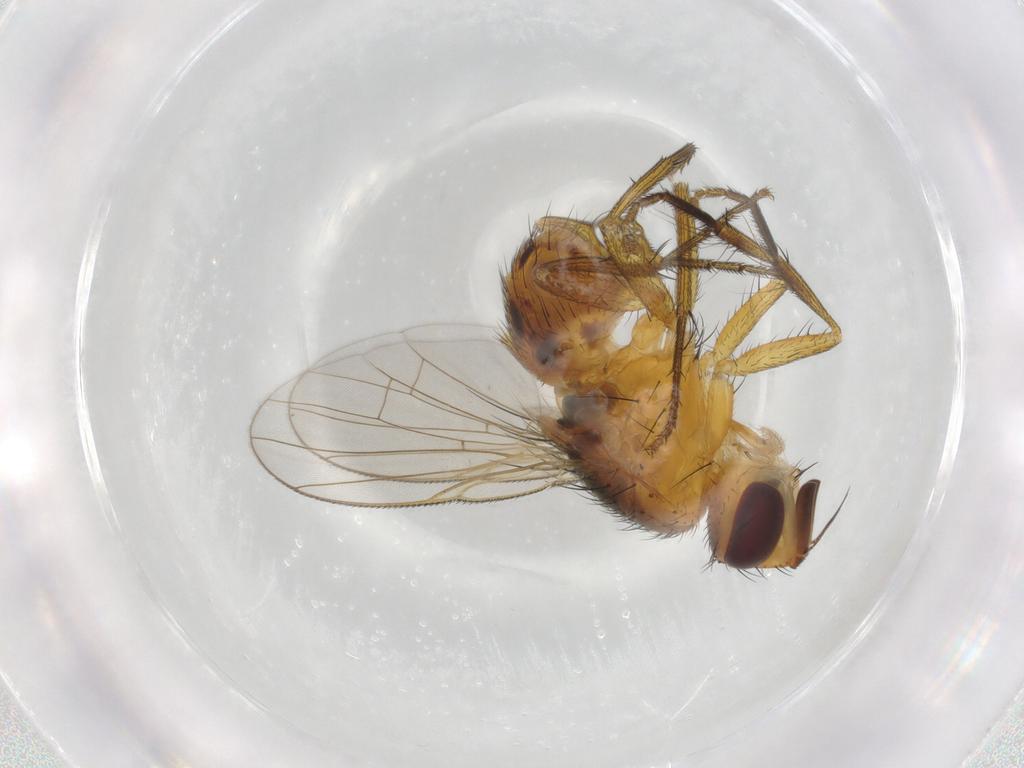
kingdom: Animalia
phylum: Arthropoda
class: Insecta
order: Diptera
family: Muscidae
